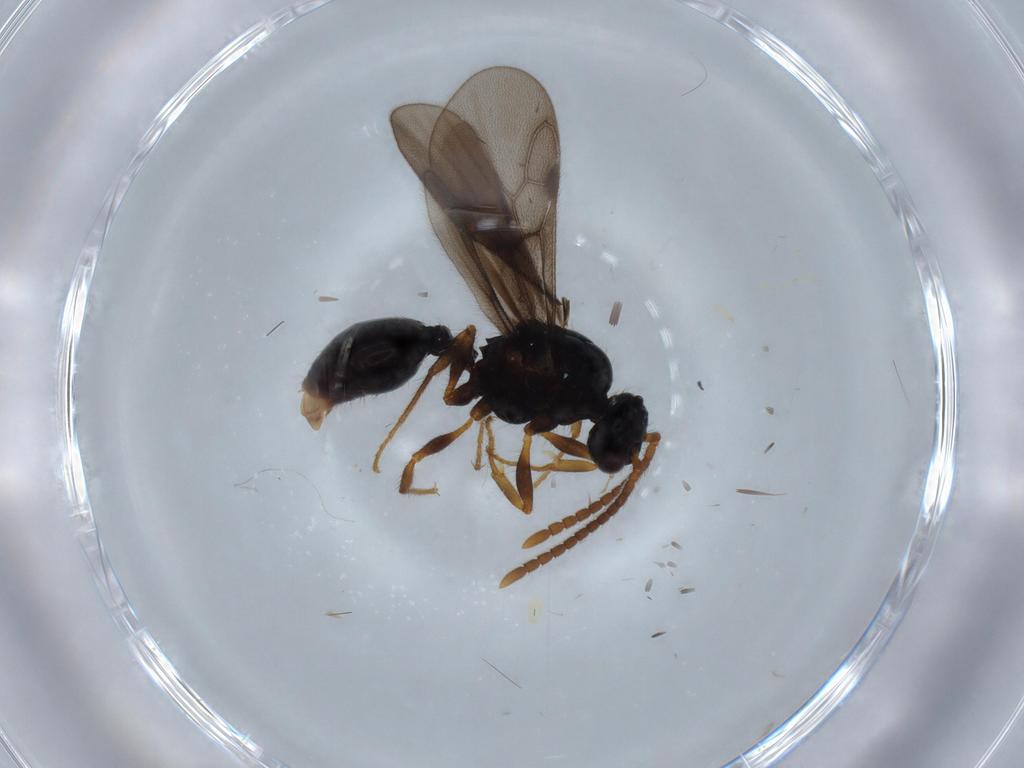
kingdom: Animalia
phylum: Arthropoda
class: Insecta
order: Hymenoptera
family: Formicidae
